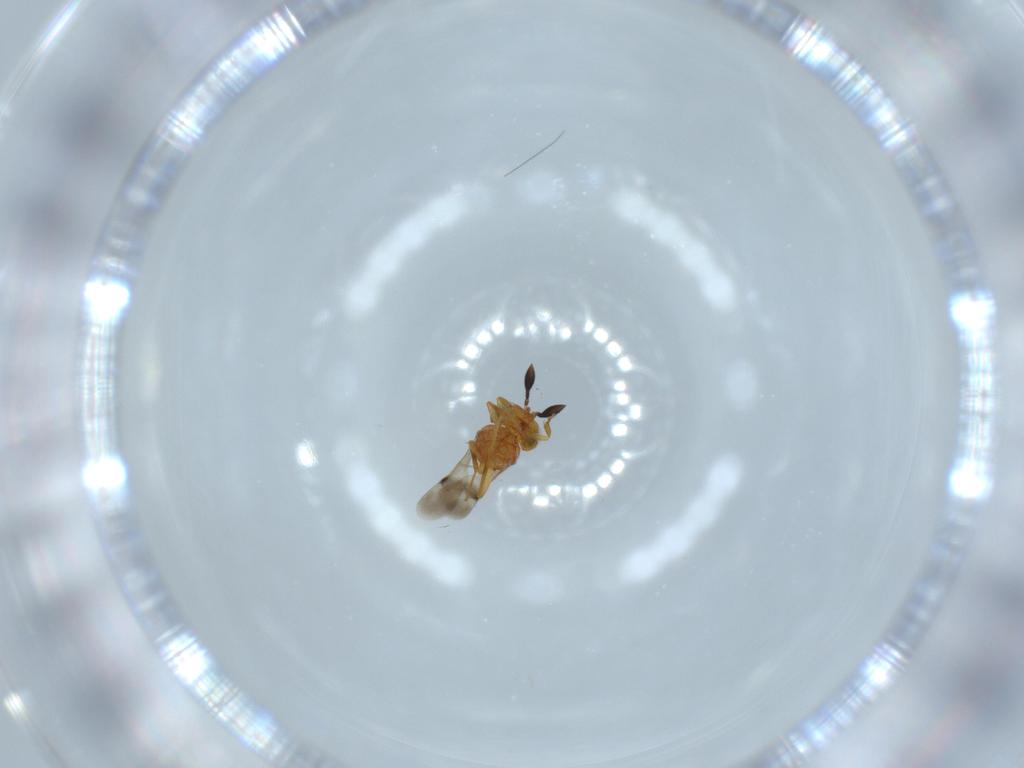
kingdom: Animalia
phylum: Arthropoda
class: Insecta
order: Hymenoptera
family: Scelionidae
